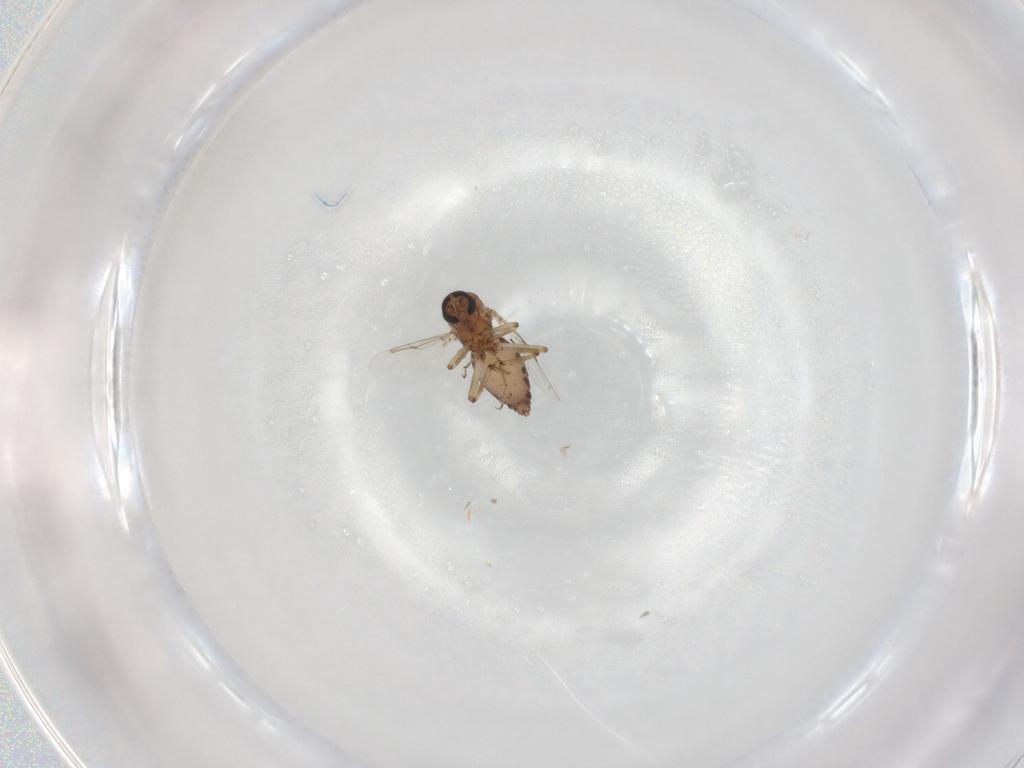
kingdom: Animalia
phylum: Arthropoda
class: Insecta
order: Diptera
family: Ceratopogonidae
